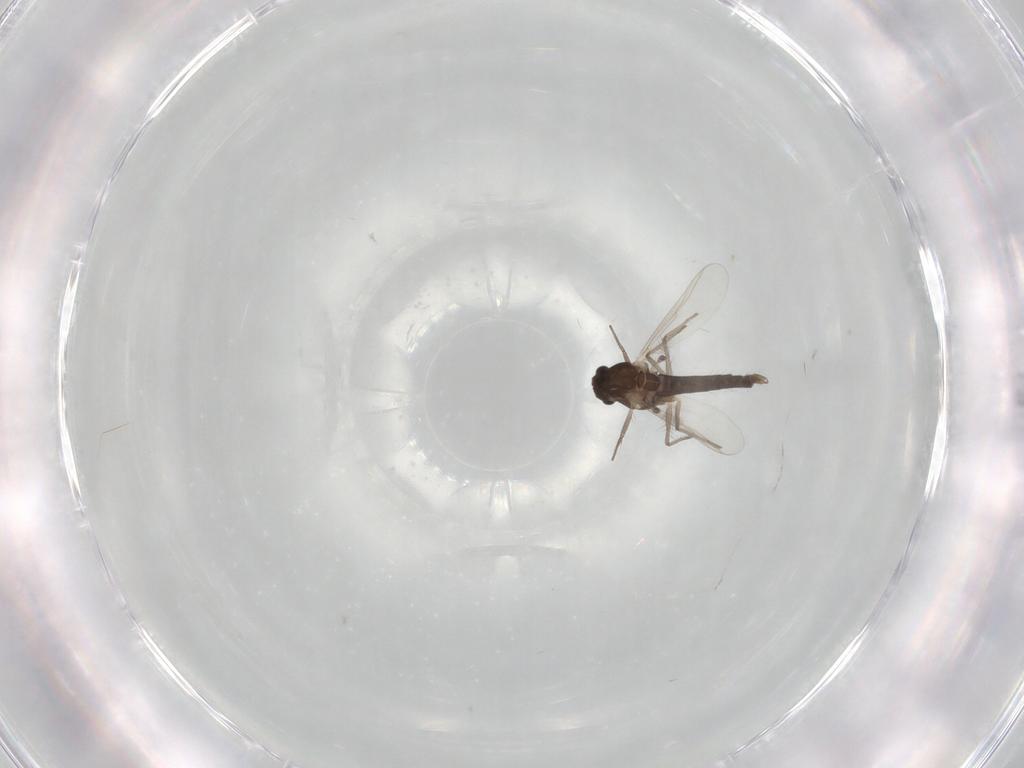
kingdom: Animalia
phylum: Arthropoda
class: Insecta
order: Diptera
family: Chironomidae
